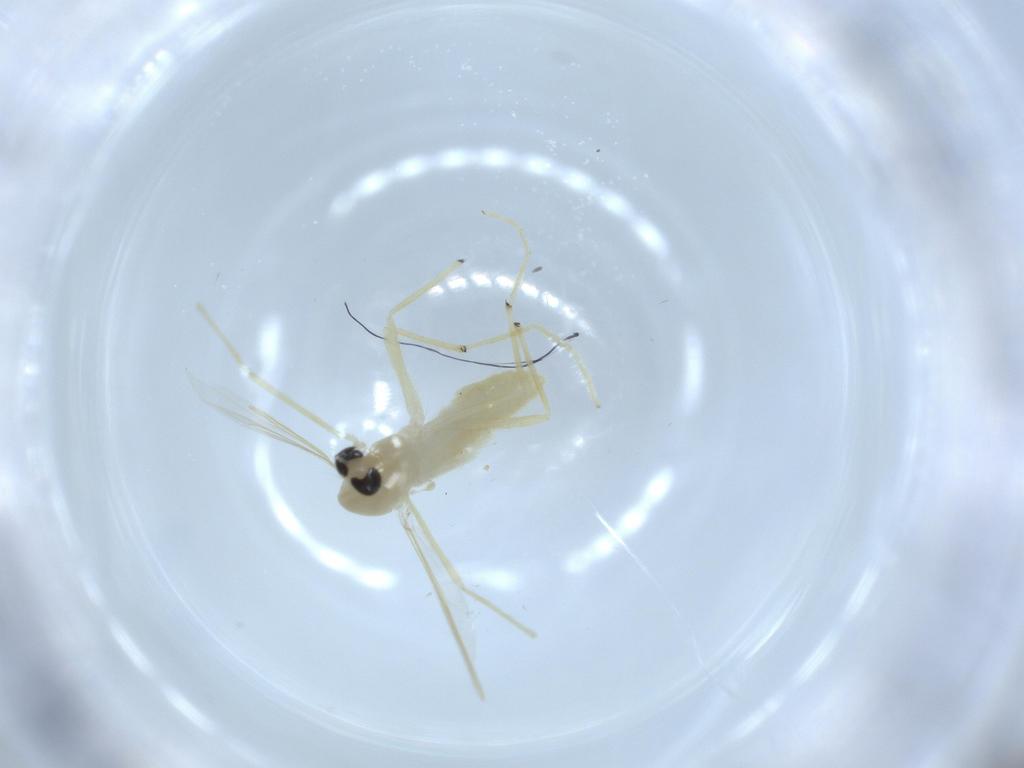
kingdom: Animalia
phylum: Arthropoda
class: Insecta
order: Diptera
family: Chironomidae
